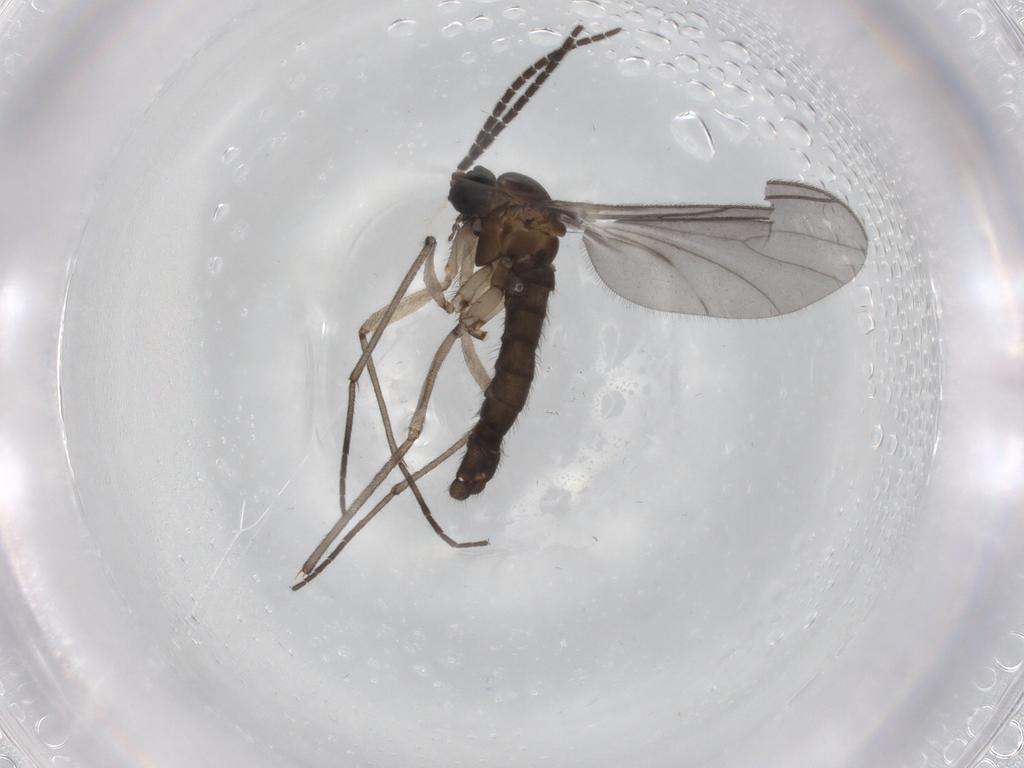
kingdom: Animalia
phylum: Arthropoda
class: Insecta
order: Diptera
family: Sciaridae
